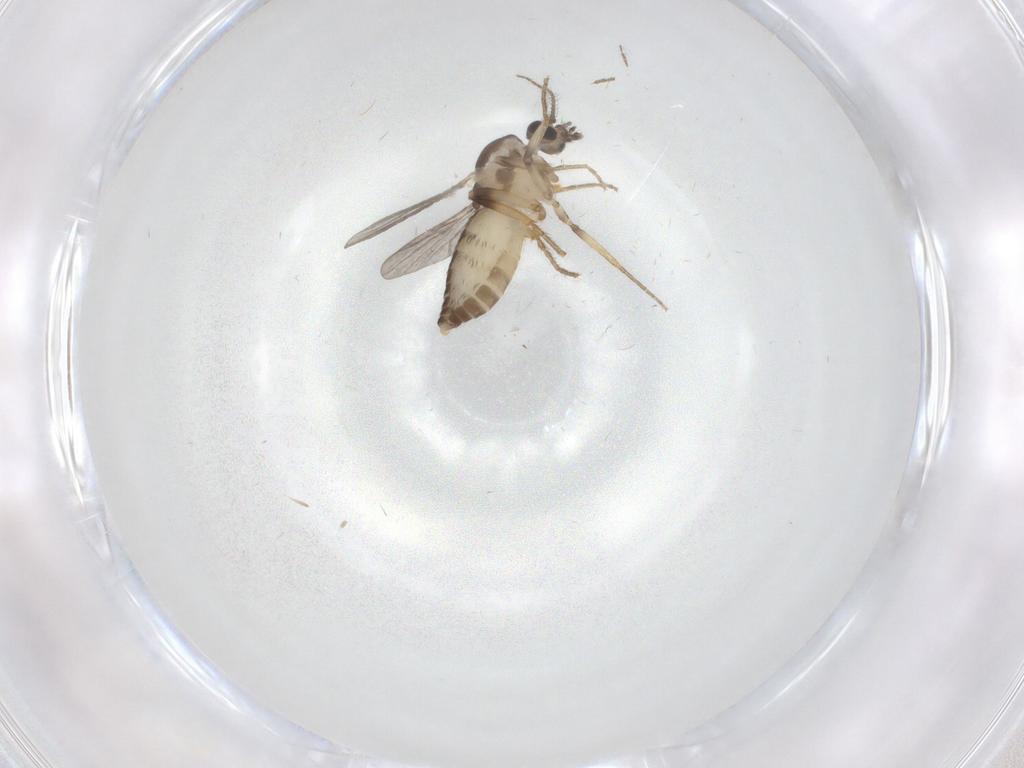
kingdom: Animalia
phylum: Arthropoda
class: Insecta
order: Diptera
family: Ceratopogonidae
